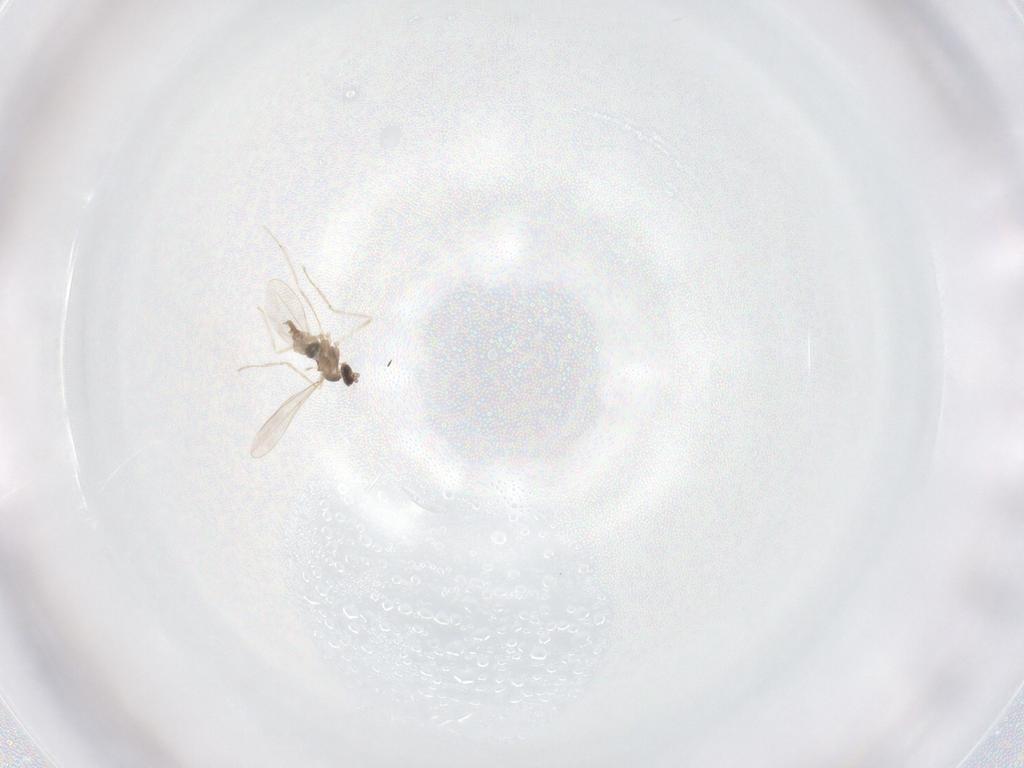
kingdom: Animalia
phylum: Arthropoda
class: Insecta
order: Diptera
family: Cecidomyiidae
